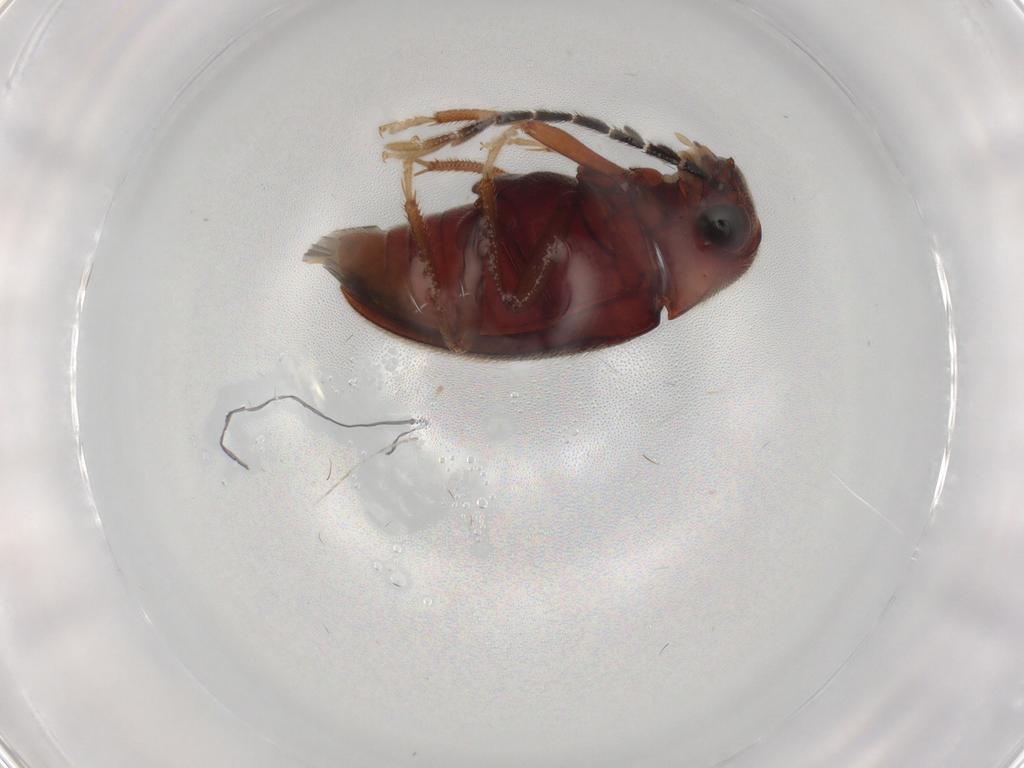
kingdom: Animalia
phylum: Arthropoda
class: Insecta
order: Coleoptera
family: Ptilodactylidae
